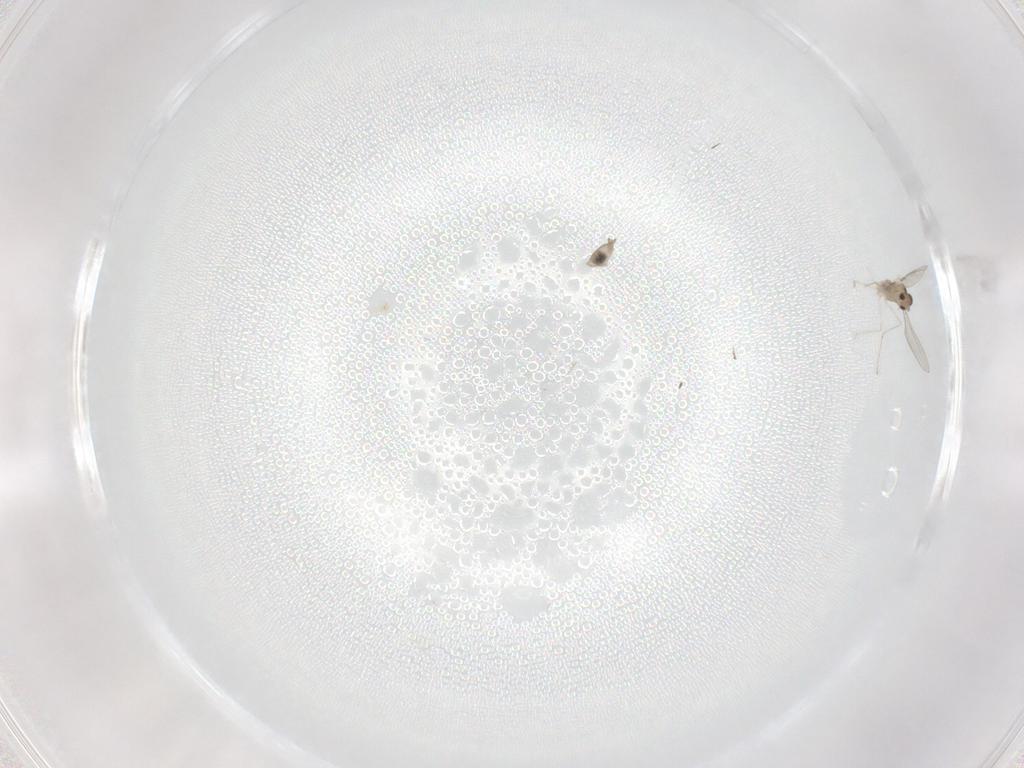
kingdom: Animalia
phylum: Arthropoda
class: Insecta
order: Diptera
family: Cecidomyiidae
